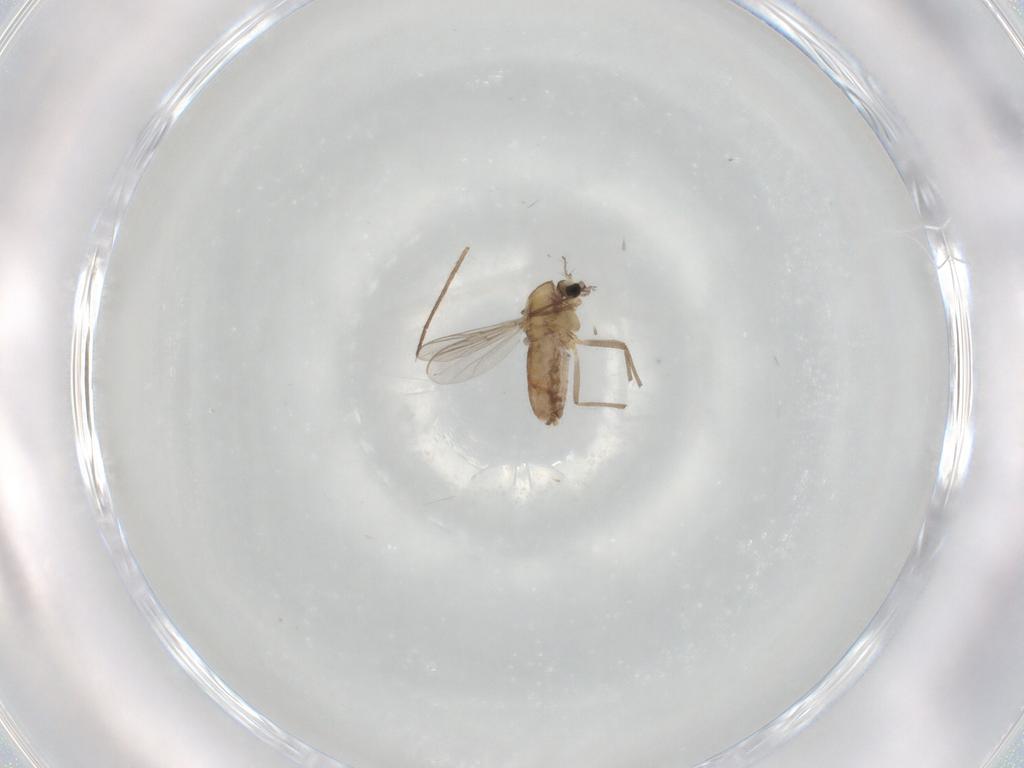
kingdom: Animalia
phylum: Arthropoda
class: Insecta
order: Diptera
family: Chironomidae
